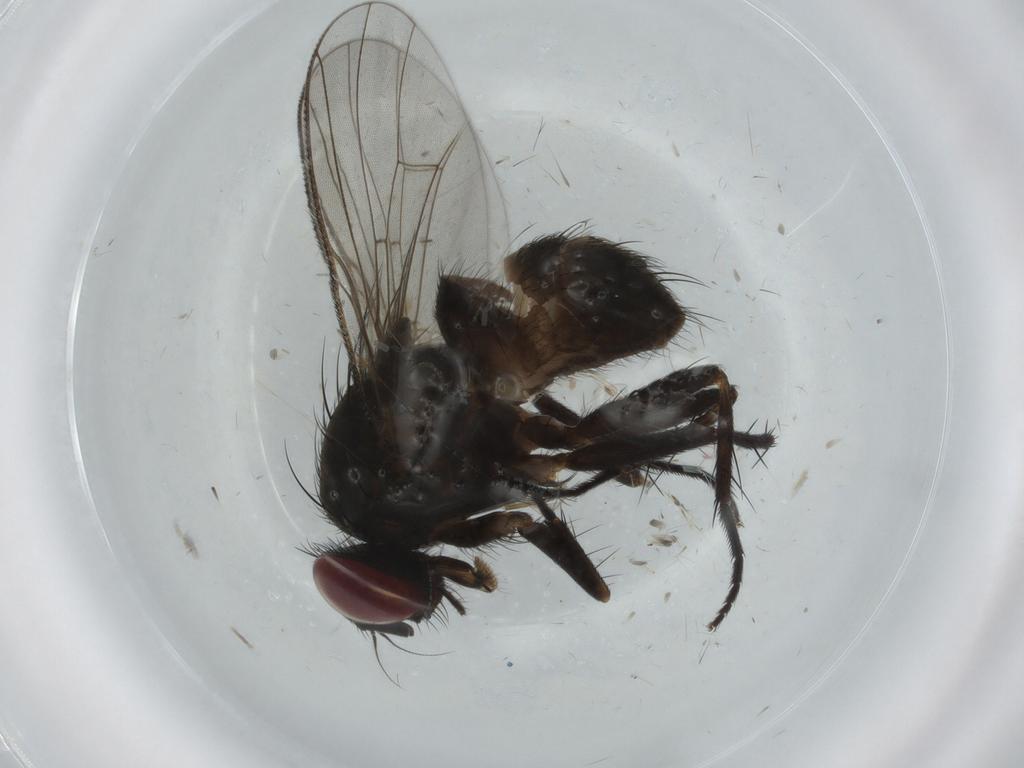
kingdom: Animalia
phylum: Arthropoda
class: Insecta
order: Diptera
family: Muscidae
